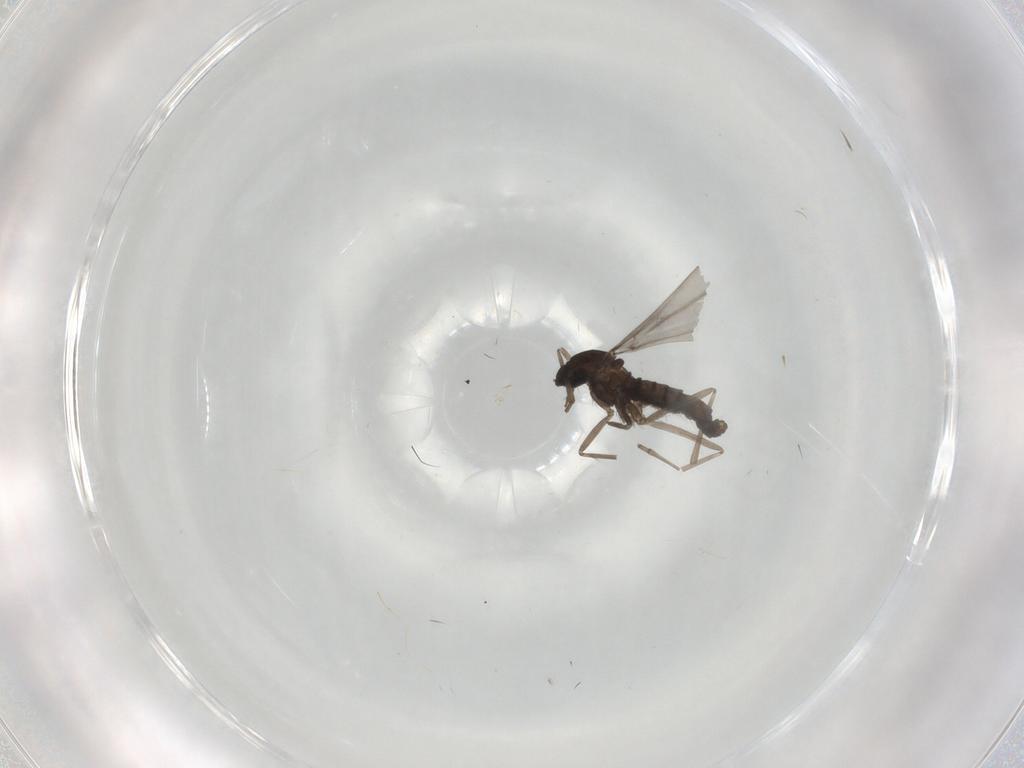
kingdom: Animalia
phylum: Arthropoda
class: Insecta
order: Diptera
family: Cecidomyiidae
